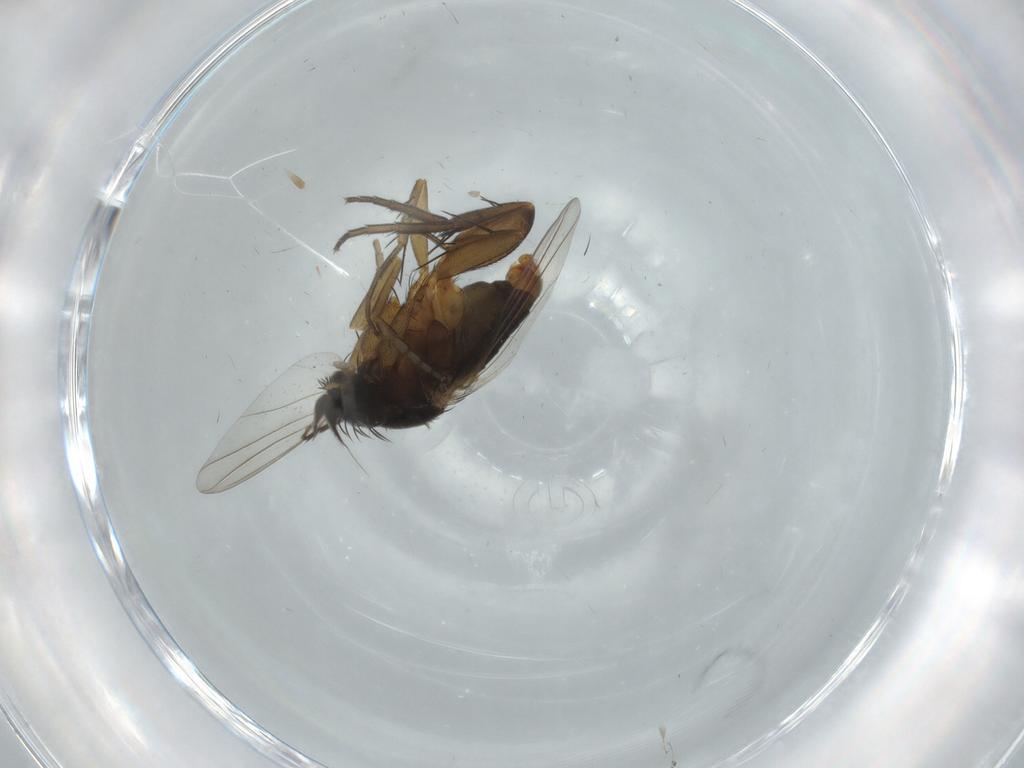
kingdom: Animalia
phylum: Arthropoda
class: Insecta
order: Diptera
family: Phoridae
